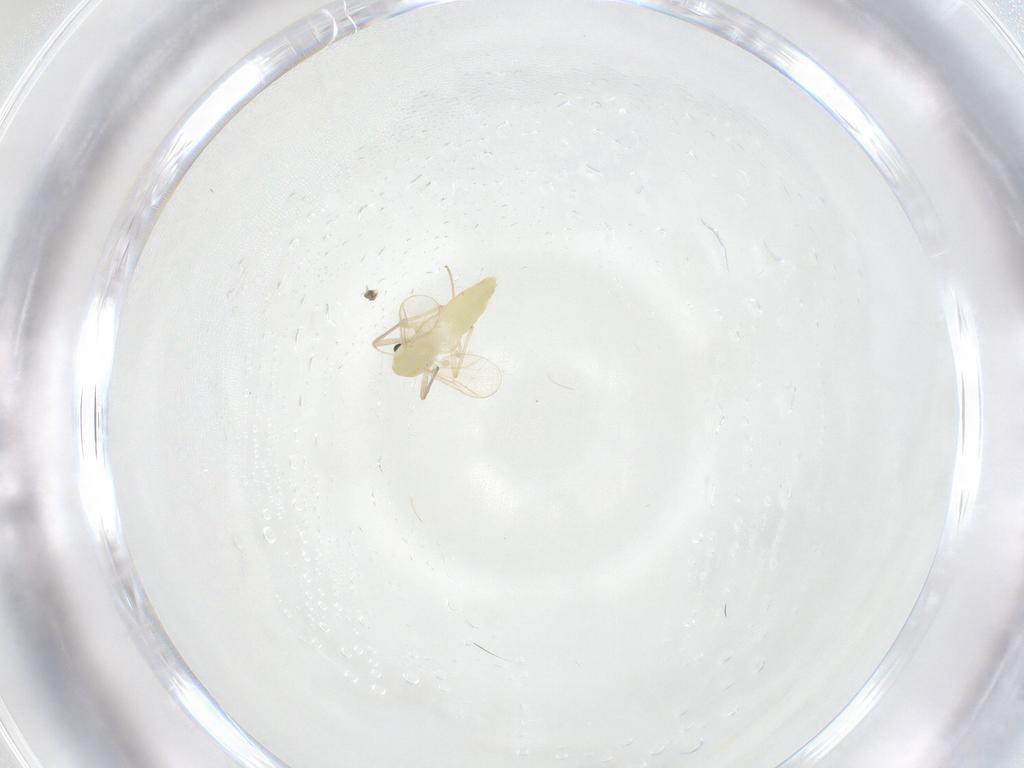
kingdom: Animalia
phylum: Arthropoda
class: Insecta
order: Diptera
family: Chironomidae
